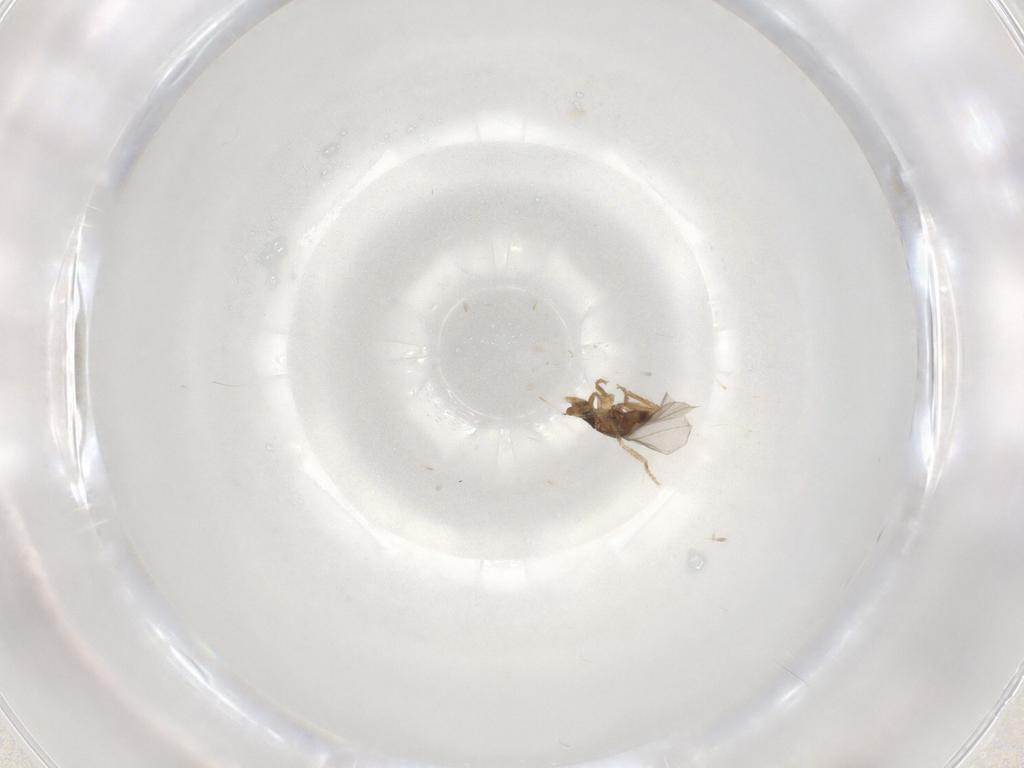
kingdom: Animalia
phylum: Arthropoda
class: Insecta
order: Diptera
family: Phoridae
